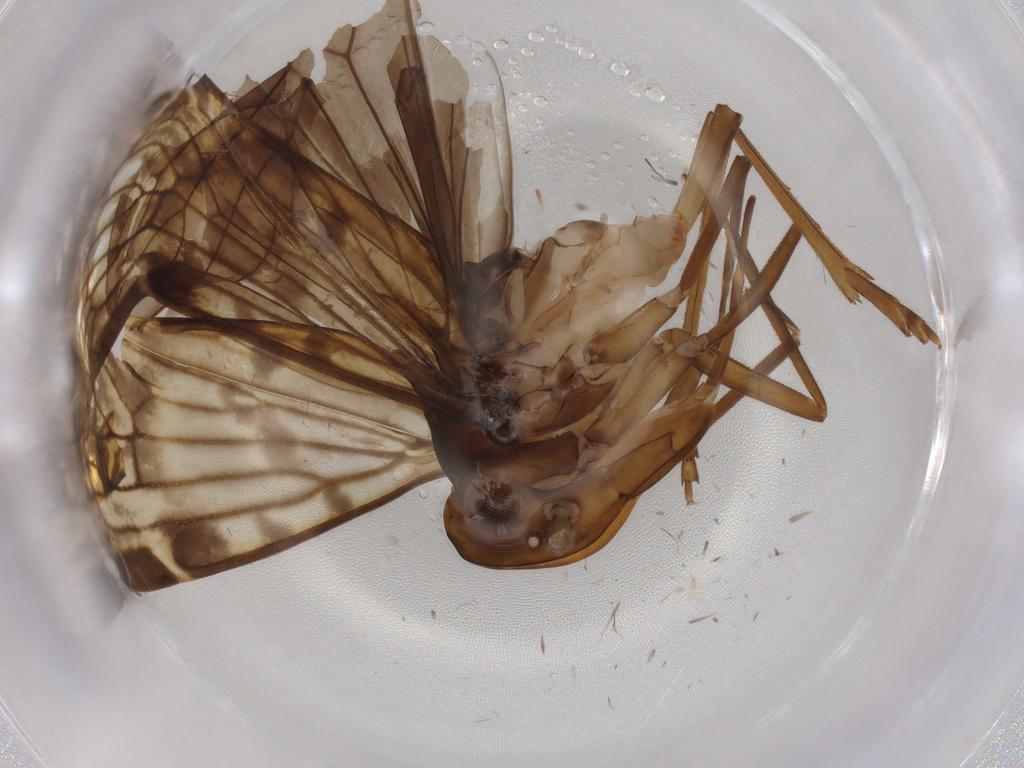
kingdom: Animalia
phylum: Arthropoda
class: Insecta
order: Hemiptera
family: Cixiidae
